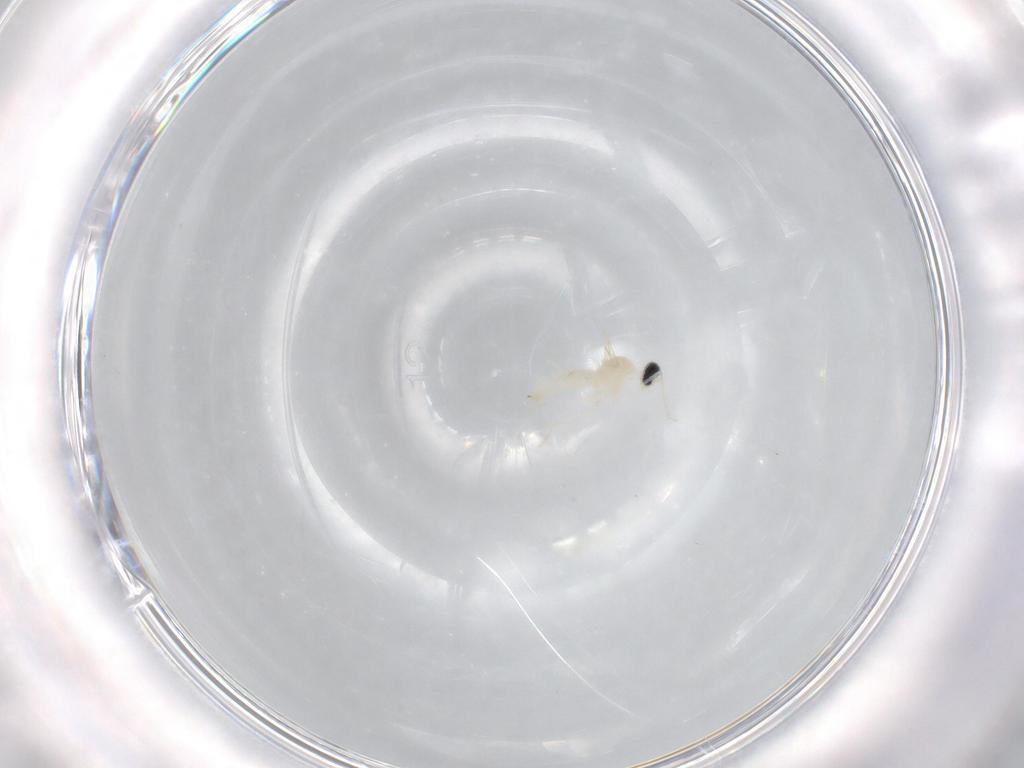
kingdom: Animalia
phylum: Arthropoda
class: Insecta
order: Diptera
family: Cecidomyiidae
